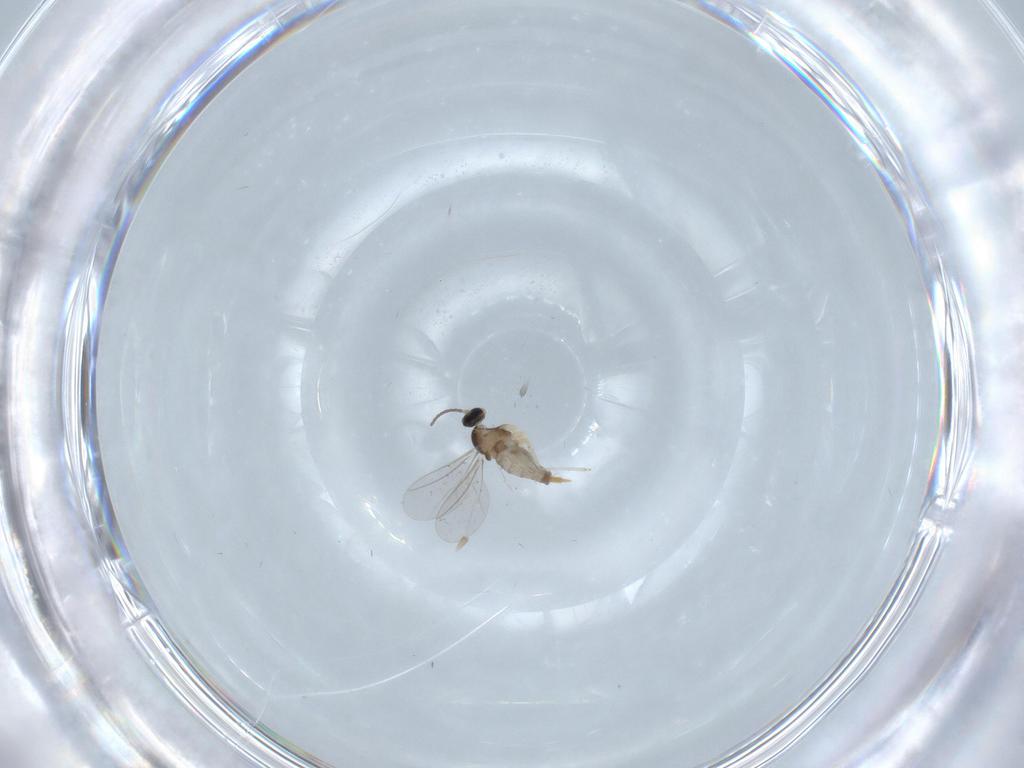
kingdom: Animalia
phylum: Arthropoda
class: Insecta
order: Diptera
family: Cecidomyiidae
